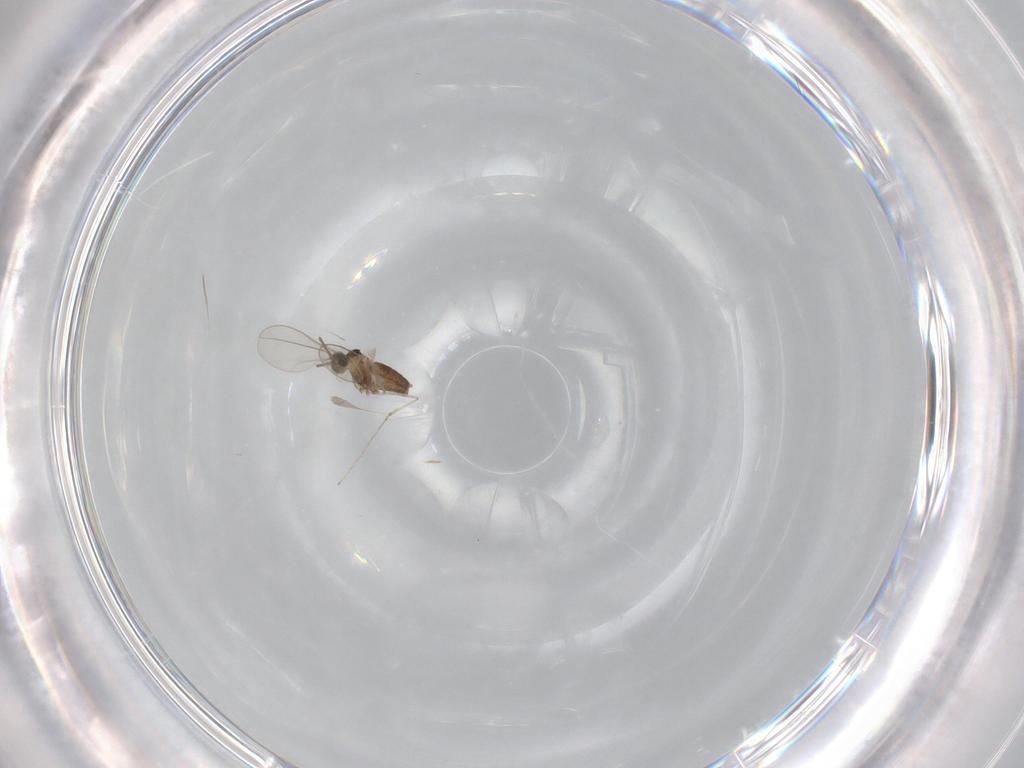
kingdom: Animalia
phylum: Arthropoda
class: Insecta
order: Diptera
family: Cecidomyiidae
